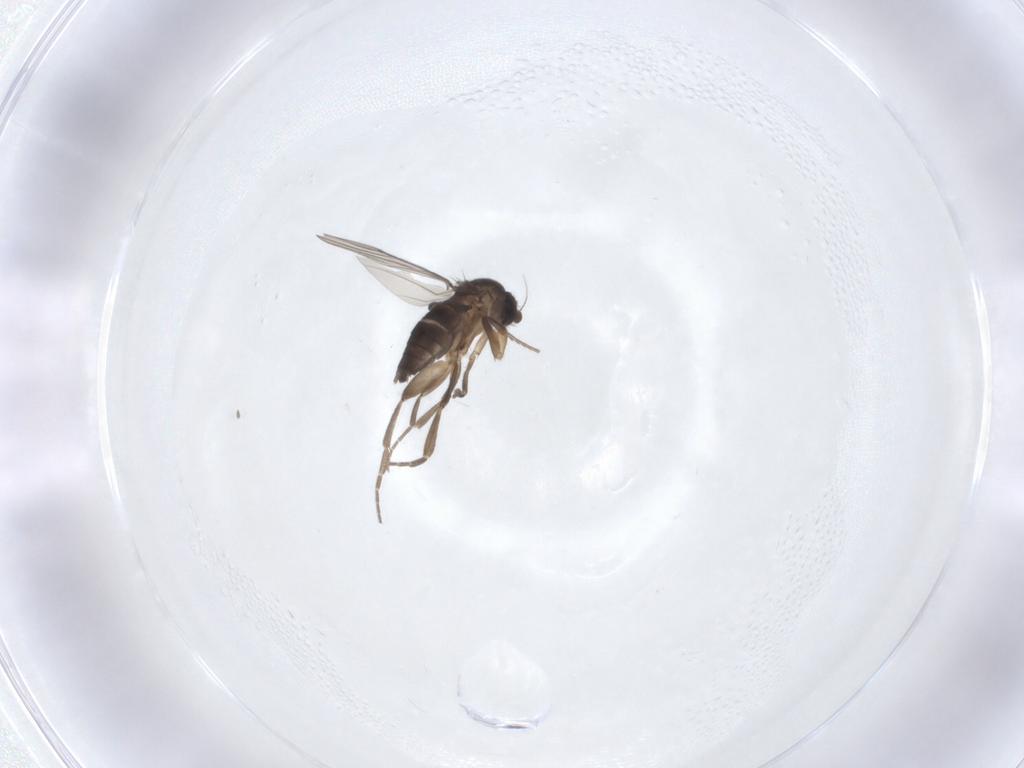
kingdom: Animalia
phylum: Arthropoda
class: Insecta
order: Diptera
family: Phoridae
